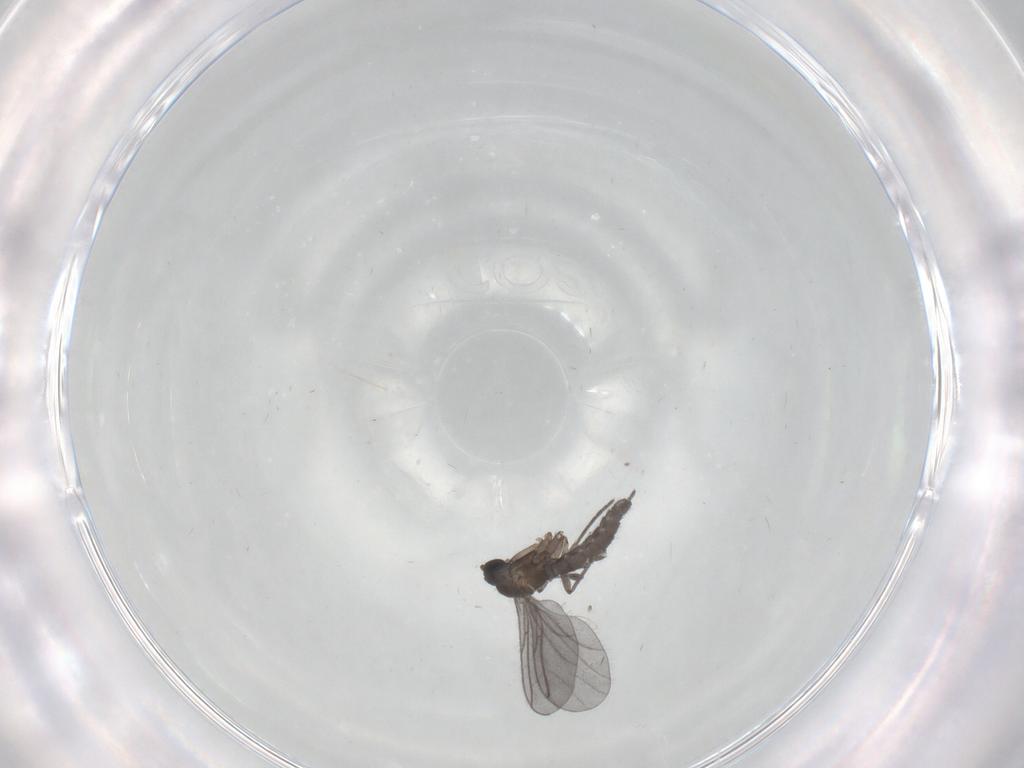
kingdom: Animalia
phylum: Arthropoda
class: Insecta
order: Diptera
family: Sciaridae
